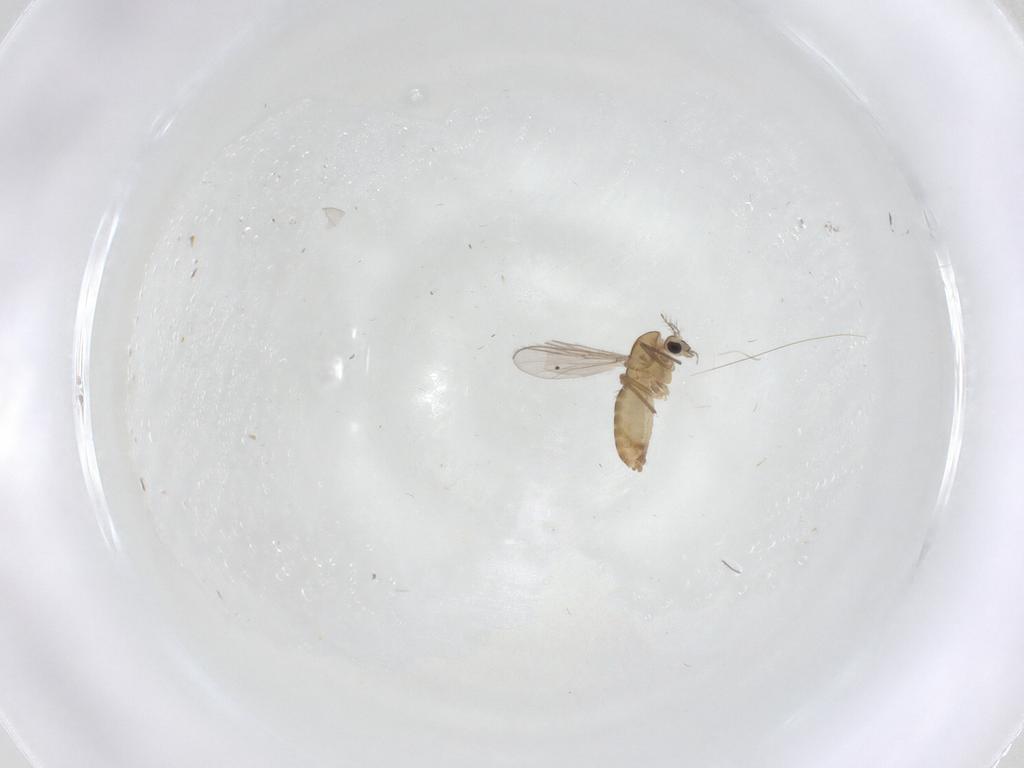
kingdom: Animalia
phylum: Arthropoda
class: Insecta
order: Diptera
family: Chironomidae
